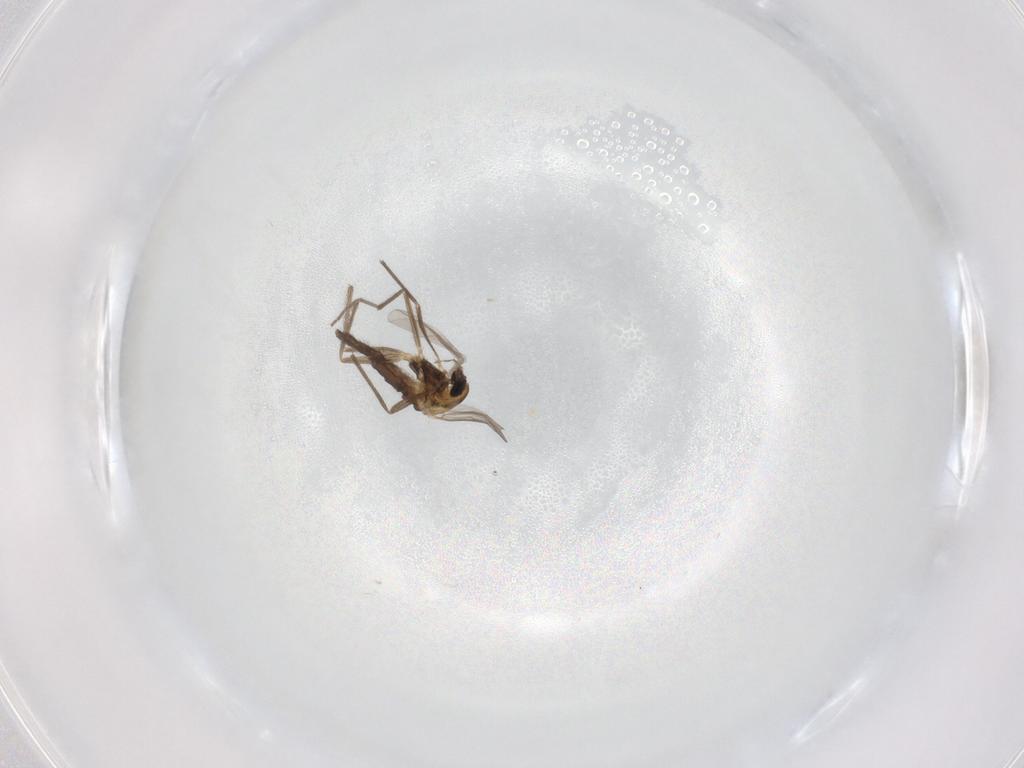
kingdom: Animalia
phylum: Arthropoda
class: Insecta
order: Diptera
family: Chironomidae
